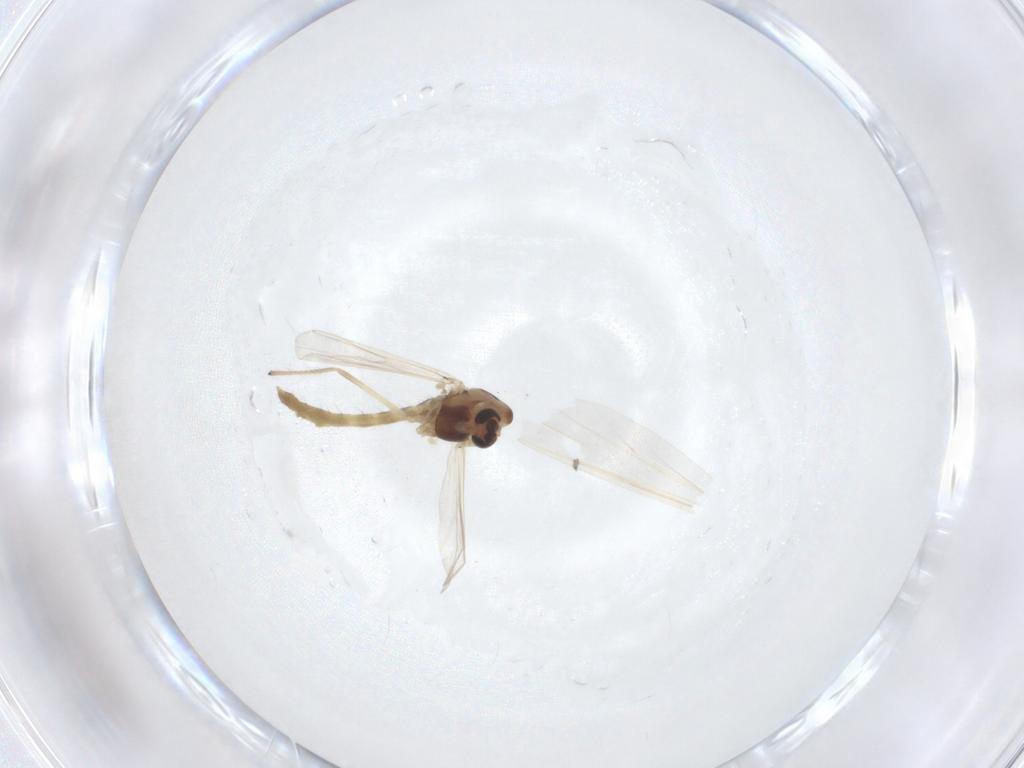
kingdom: Animalia
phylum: Arthropoda
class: Insecta
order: Diptera
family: Chironomidae
